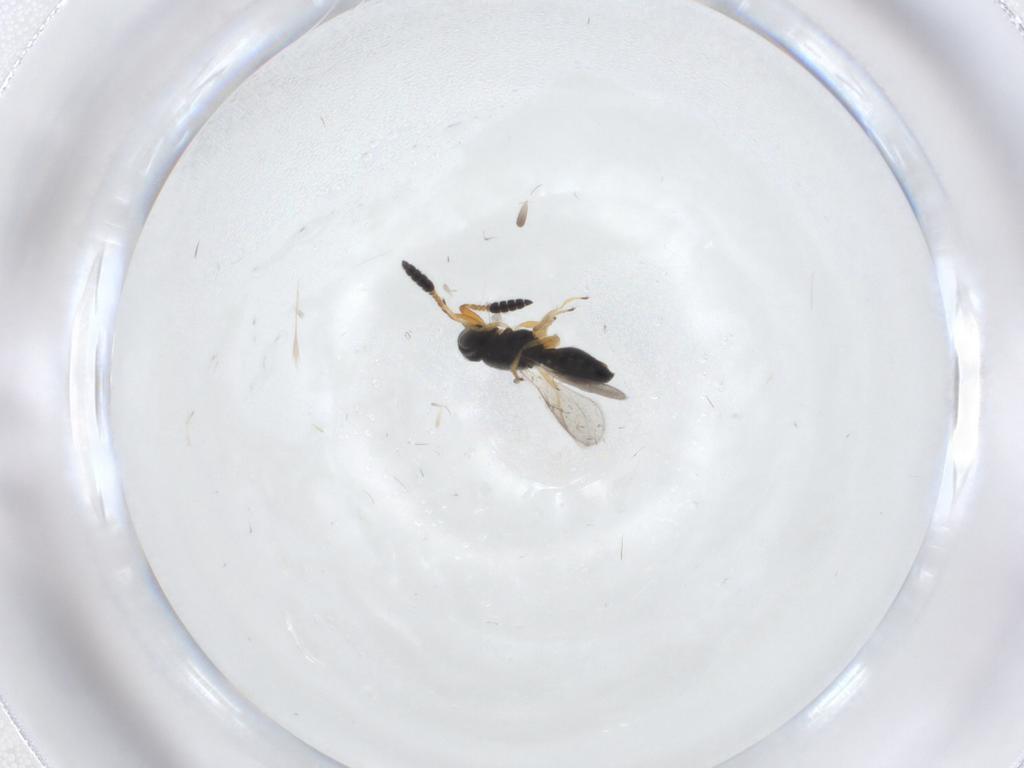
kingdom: Animalia
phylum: Arthropoda
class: Insecta
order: Hymenoptera
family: Scelionidae
